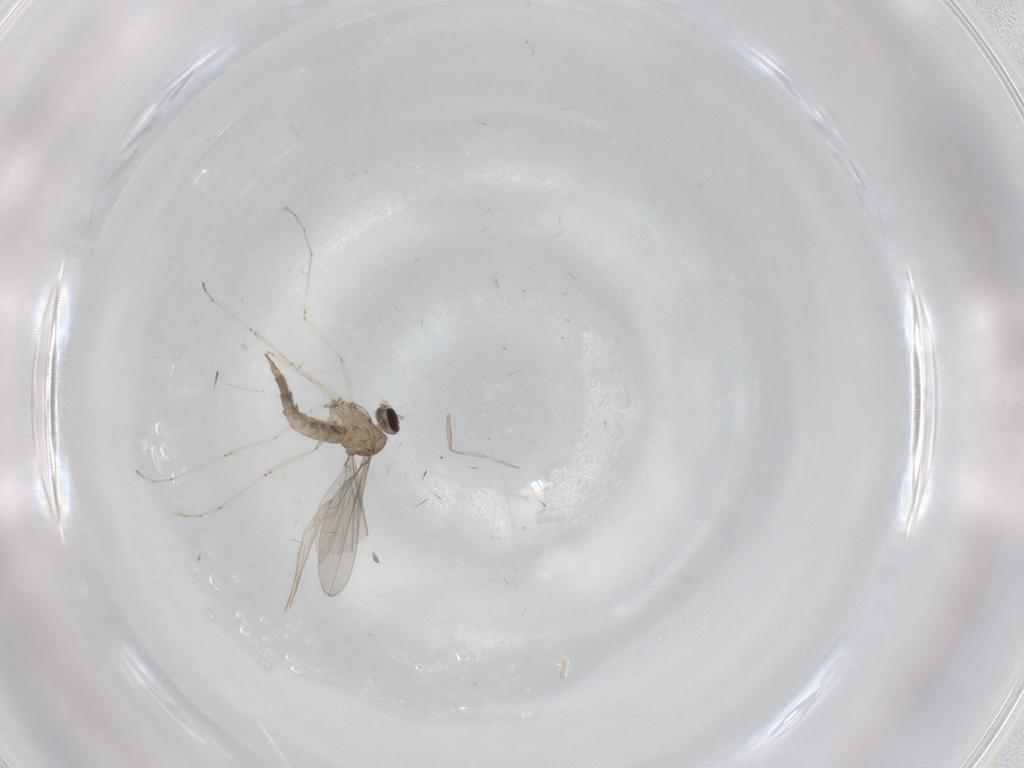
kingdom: Animalia
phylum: Arthropoda
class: Insecta
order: Diptera
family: Cecidomyiidae
